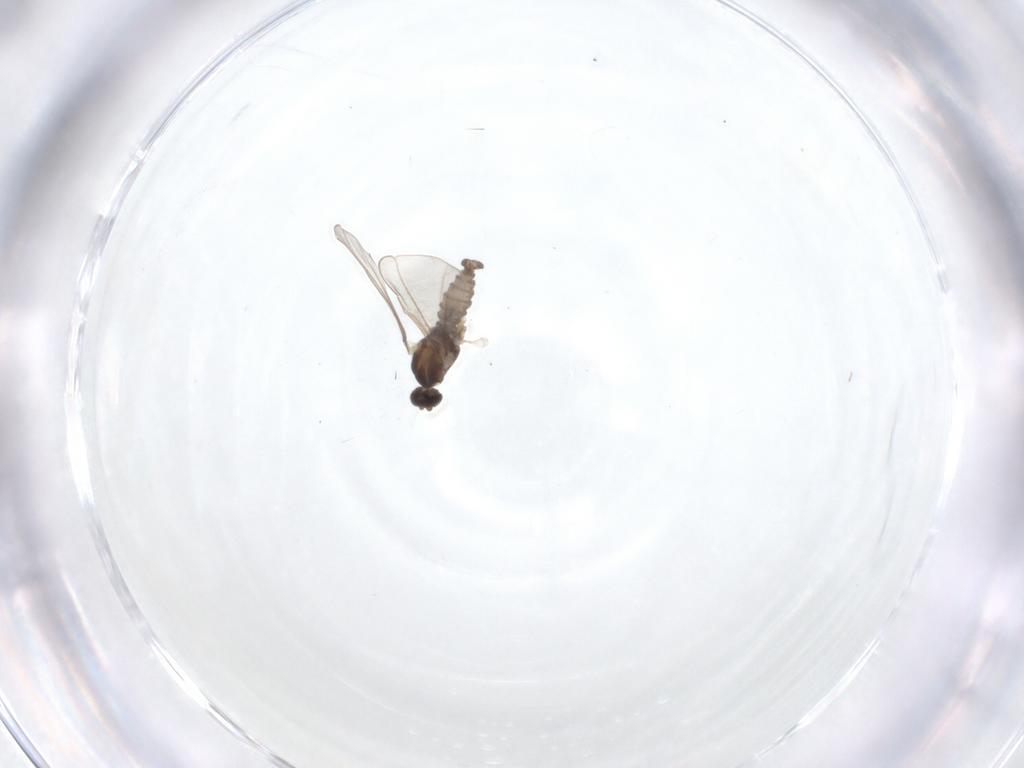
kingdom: Animalia
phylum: Arthropoda
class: Insecta
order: Diptera
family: Cecidomyiidae
